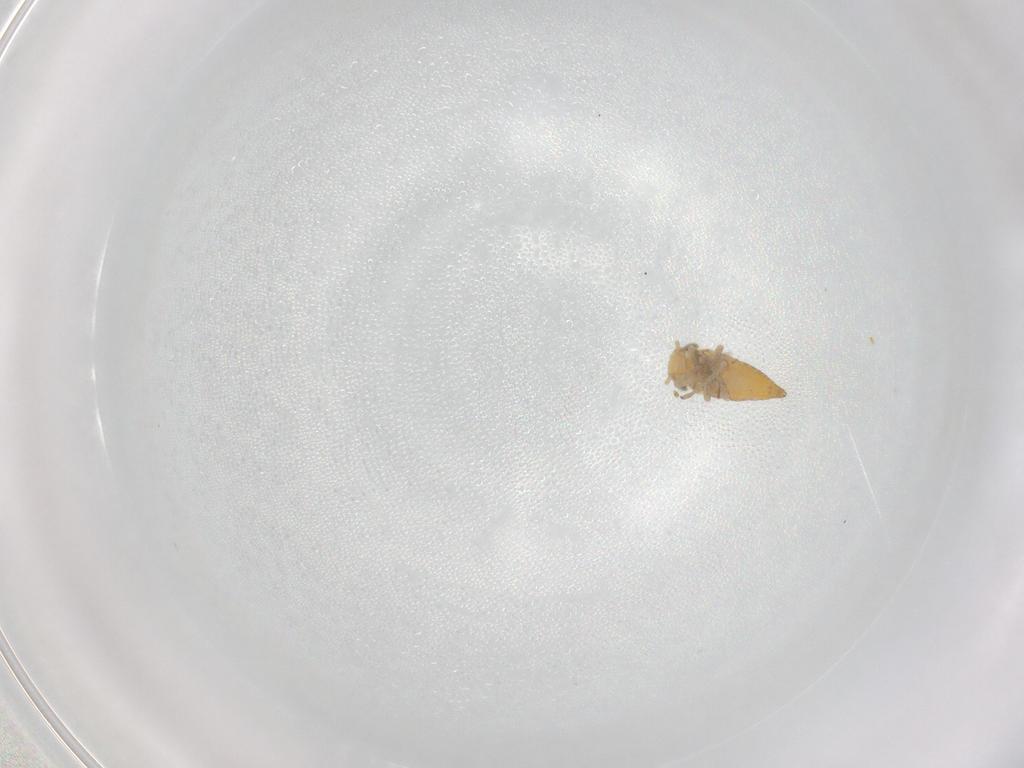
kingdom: Animalia
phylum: Arthropoda
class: Insecta
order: Hemiptera
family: Cicadellidae
